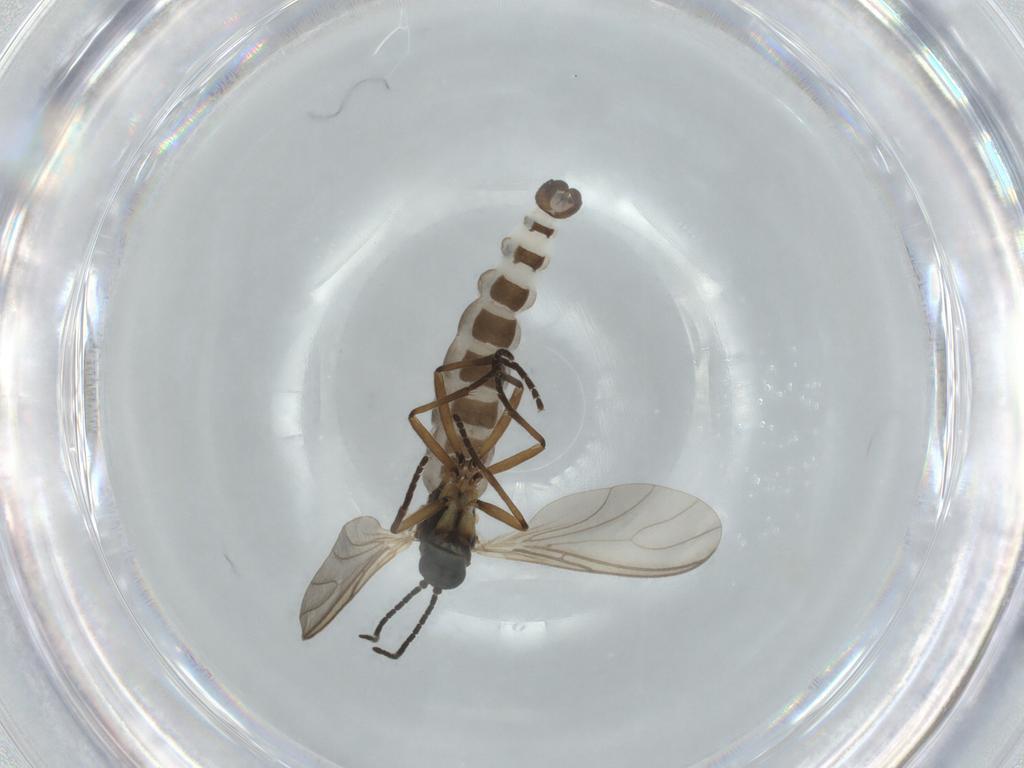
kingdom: Animalia
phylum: Arthropoda
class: Insecta
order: Diptera
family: Sciaridae
